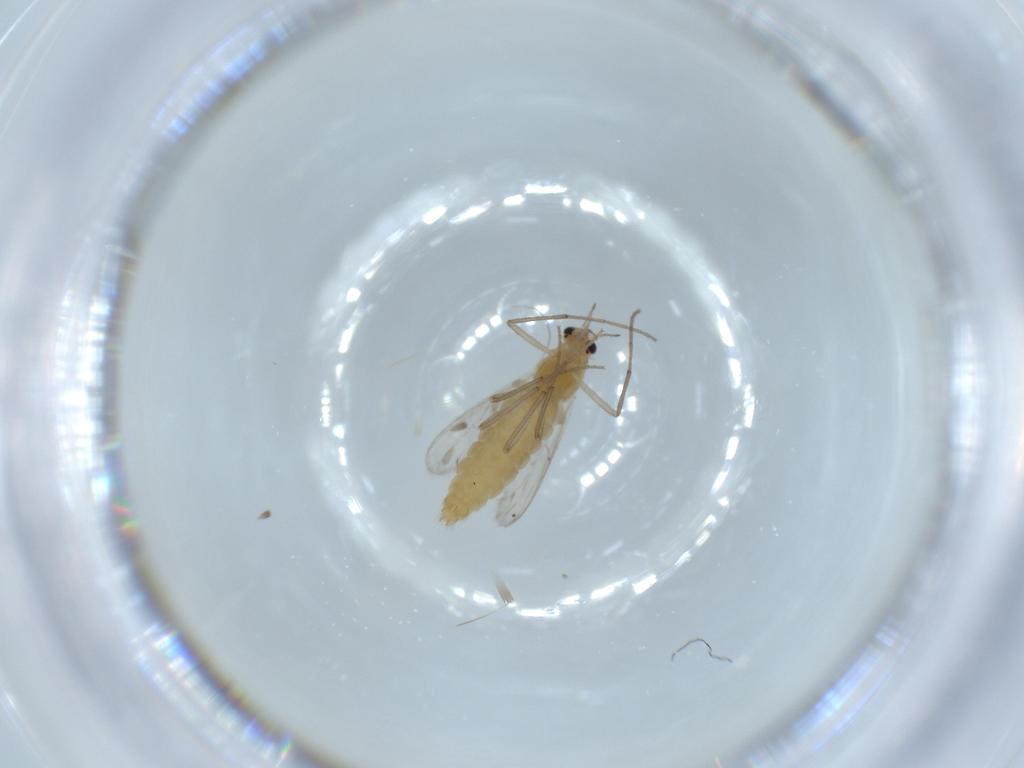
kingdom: Animalia
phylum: Arthropoda
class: Insecta
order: Diptera
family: Chironomidae
